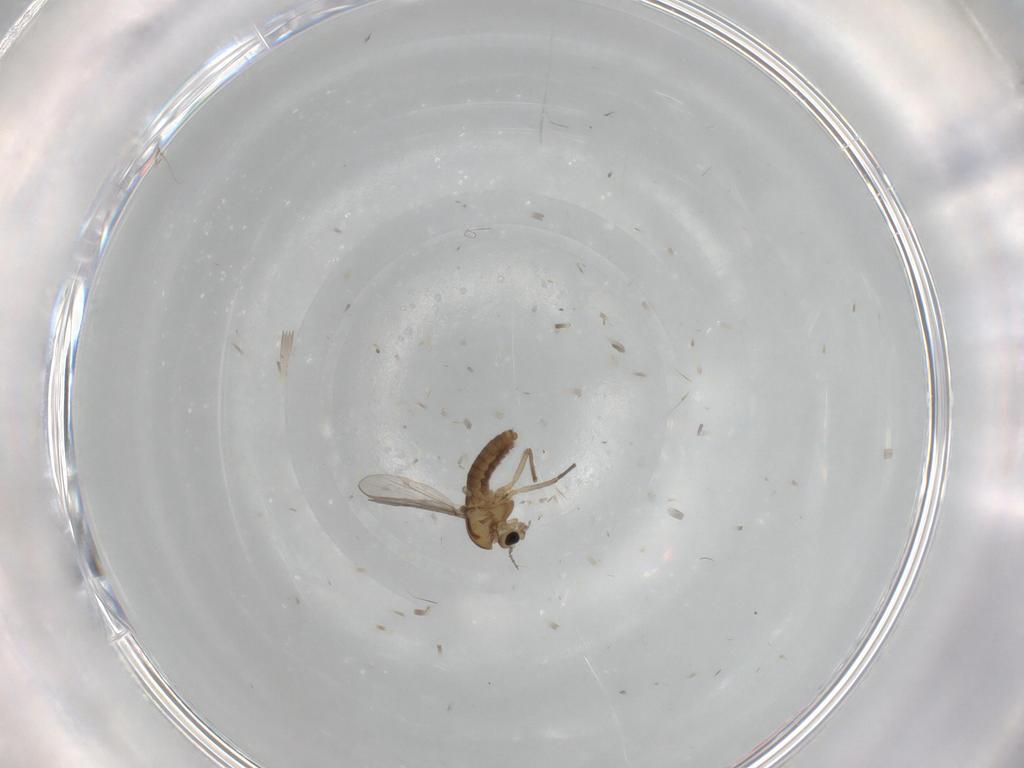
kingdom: Animalia
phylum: Arthropoda
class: Insecta
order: Diptera
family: Chironomidae
